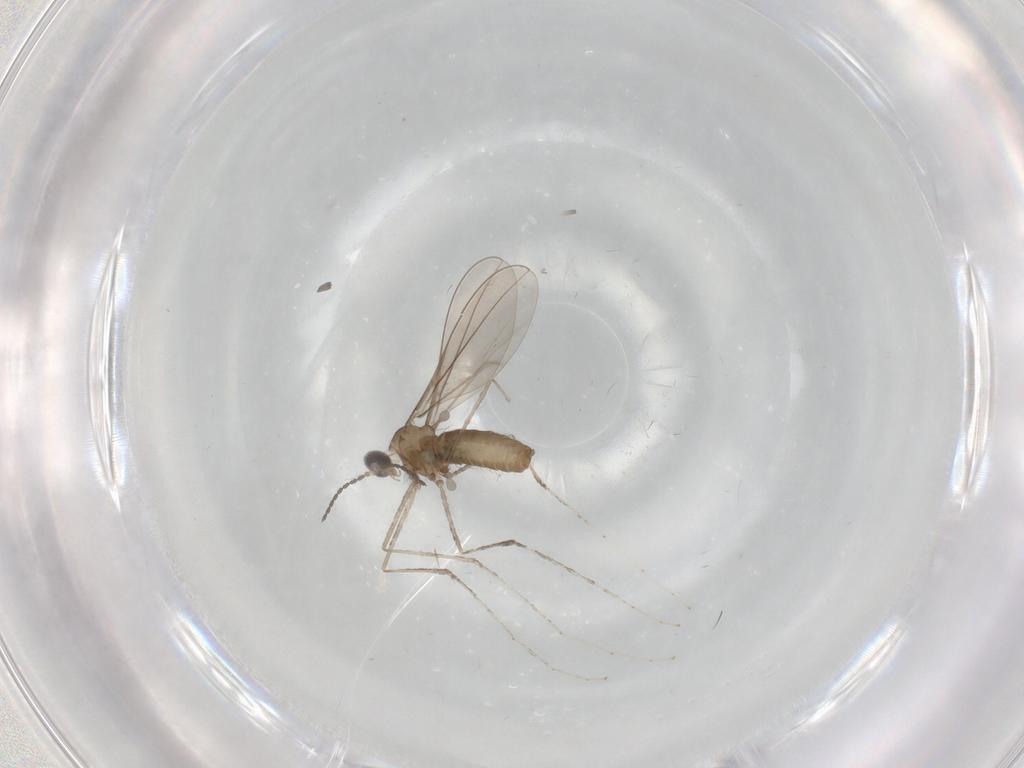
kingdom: Animalia
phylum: Arthropoda
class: Insecta
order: Diptera
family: Cecidomyiidae
